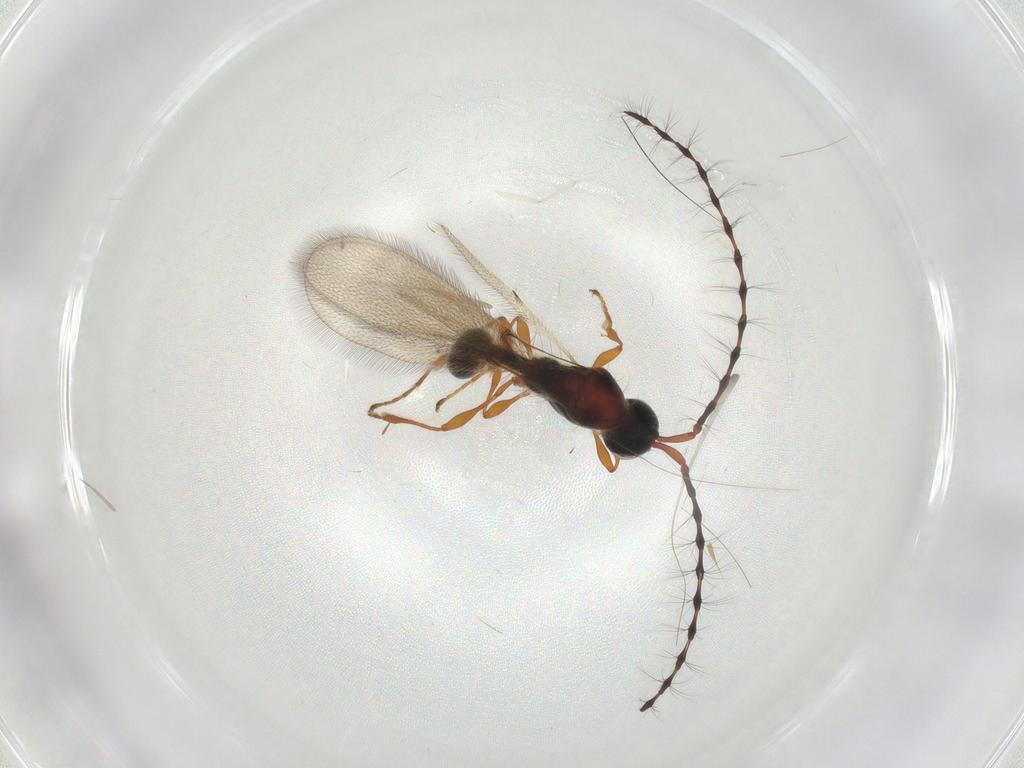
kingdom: Animalia
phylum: Arthropoda
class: Insecta
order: Hymenoptera
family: Diapriidae
